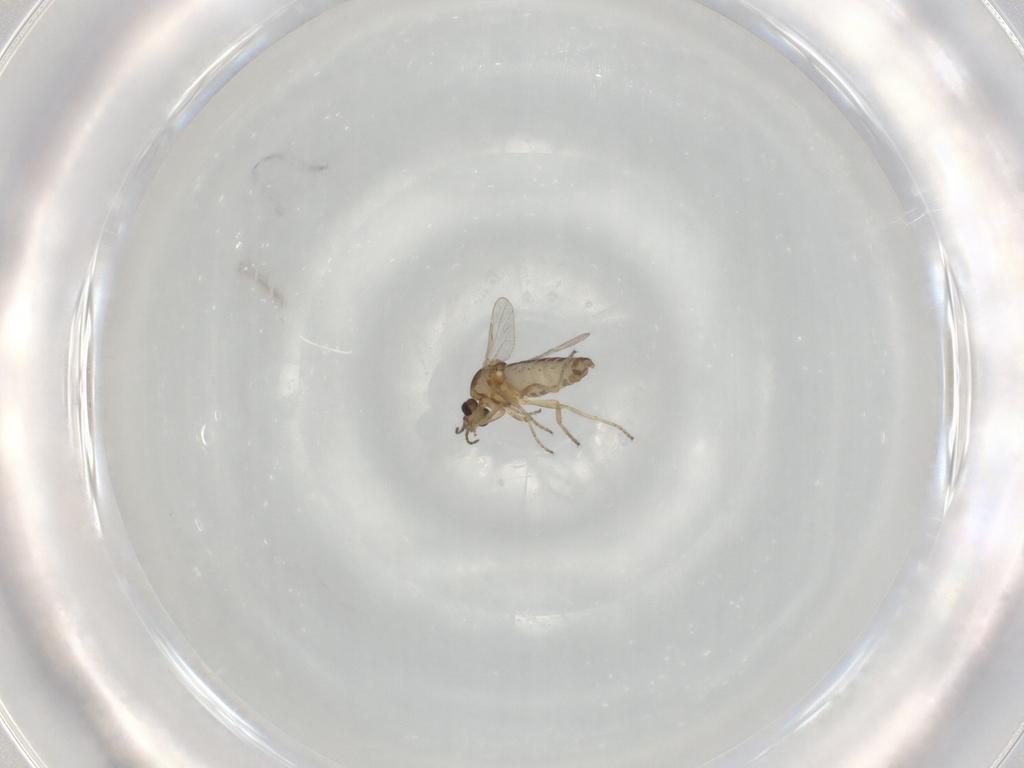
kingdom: Animalia
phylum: Arthropoda
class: Insecta
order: Diptera
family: Ceratopogonidae
